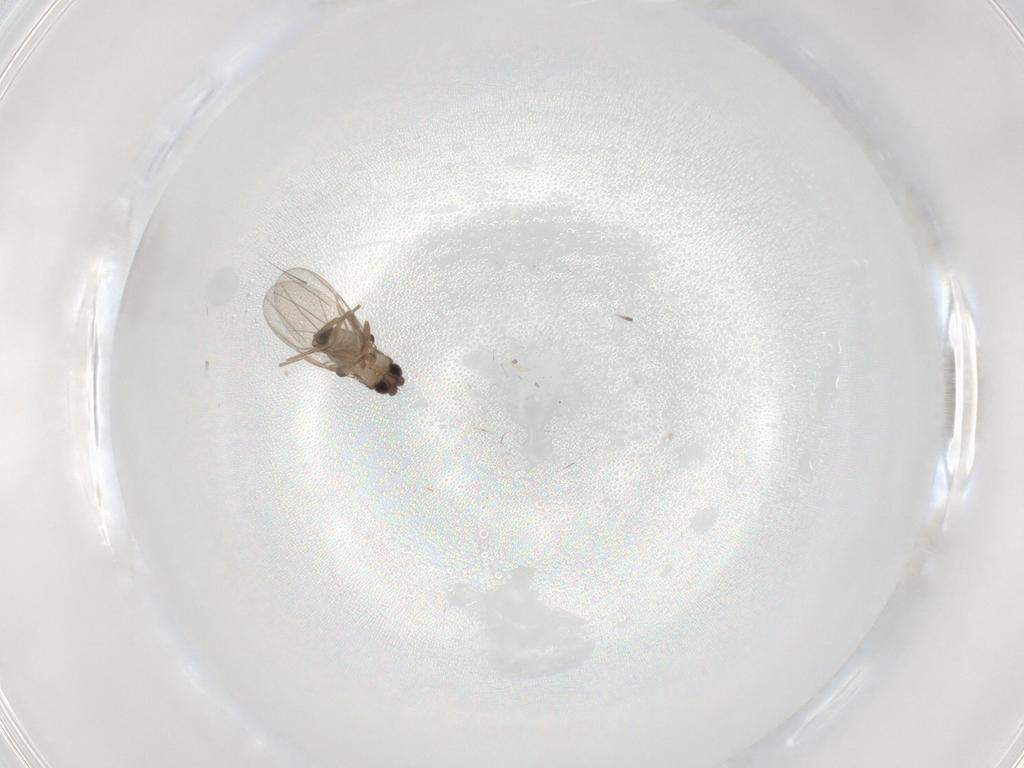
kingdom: Animalia
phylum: Arthropoda
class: Insecta
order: Diptera
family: Phoridae
